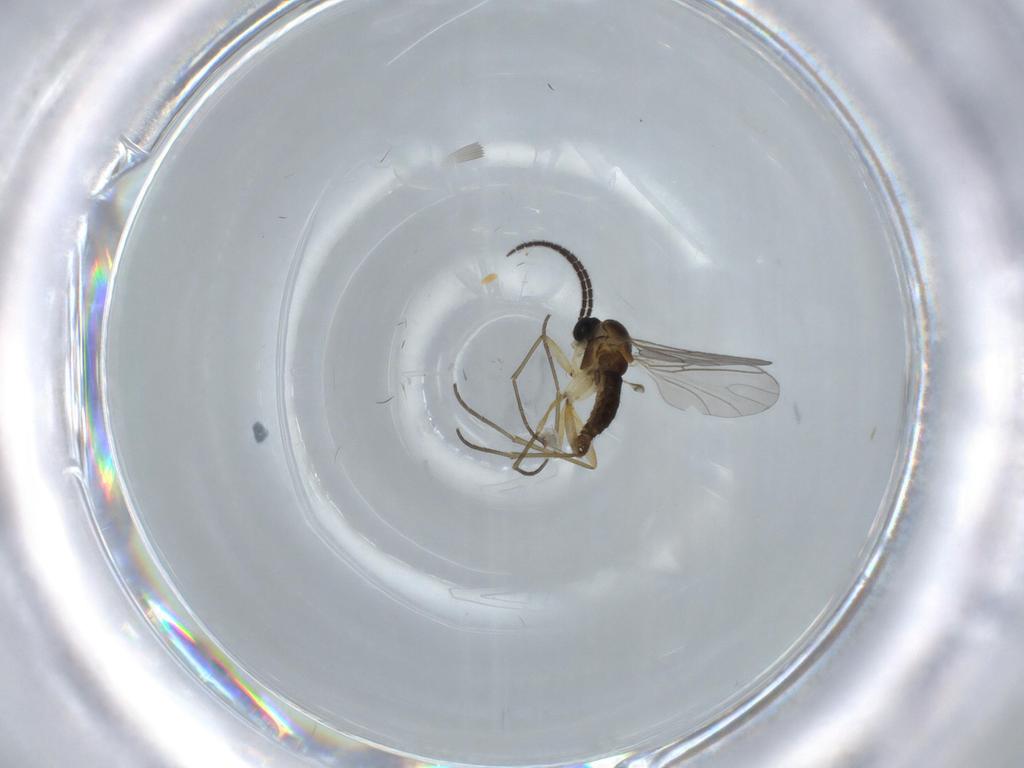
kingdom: Animalia
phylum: Arthropoda
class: Insecta
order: Diptera
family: Sciaridae
